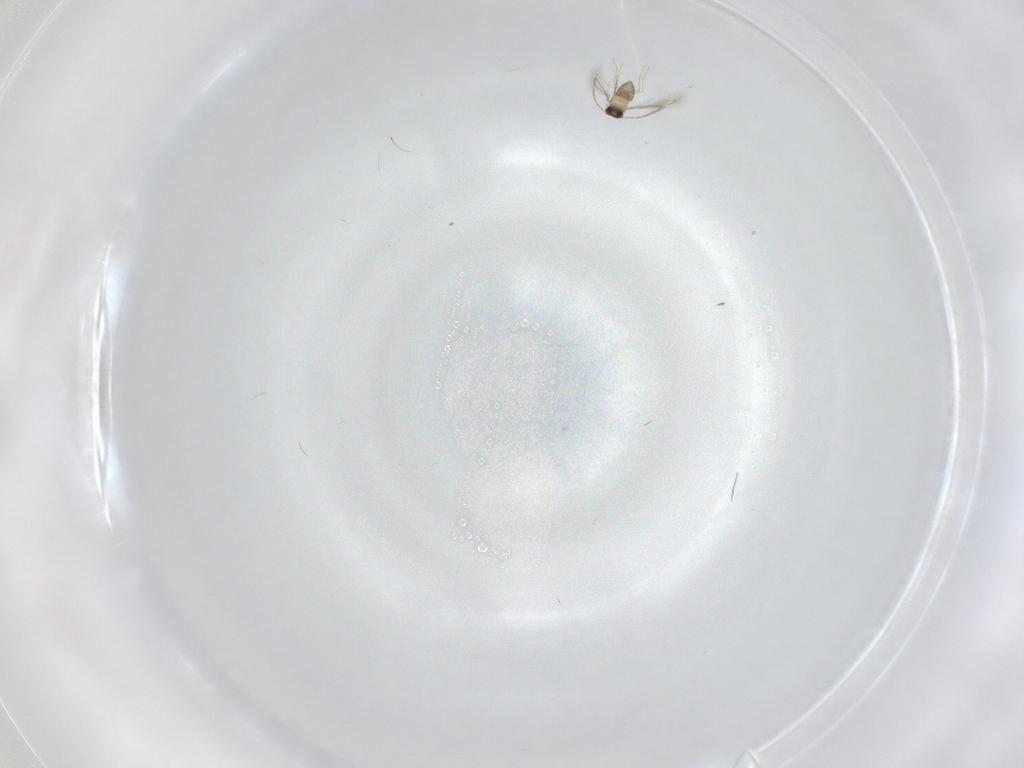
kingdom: Animalia
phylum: Arthropoda
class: Insecta
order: Hymenoptera
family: Crabronidae
